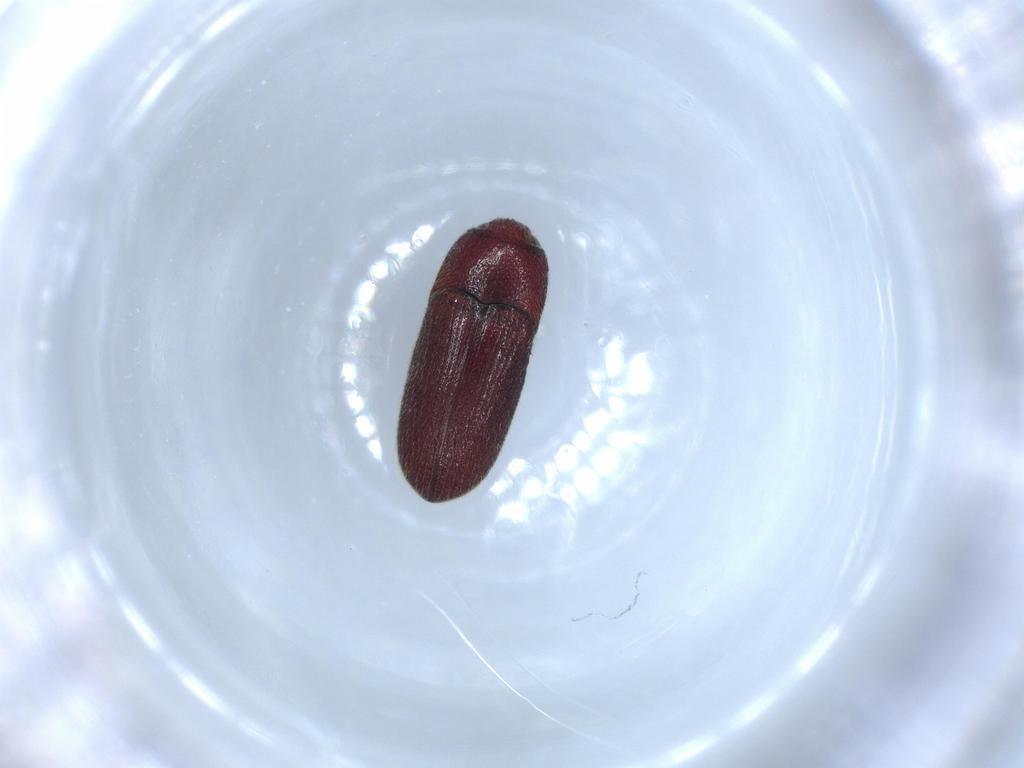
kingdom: Animalia
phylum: Arthropoda
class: Insecta
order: Coleoptera
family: Throscidae
